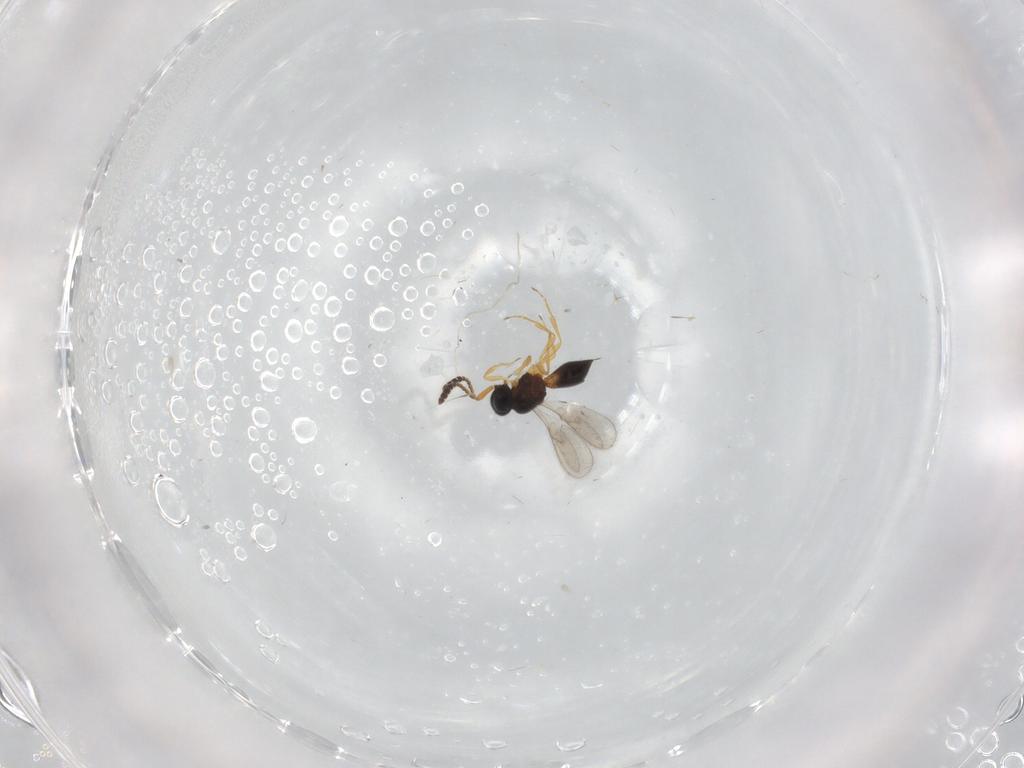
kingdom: Animalia
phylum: Arthropoda
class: Insecta
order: Hymenoptera
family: Scelionidae
